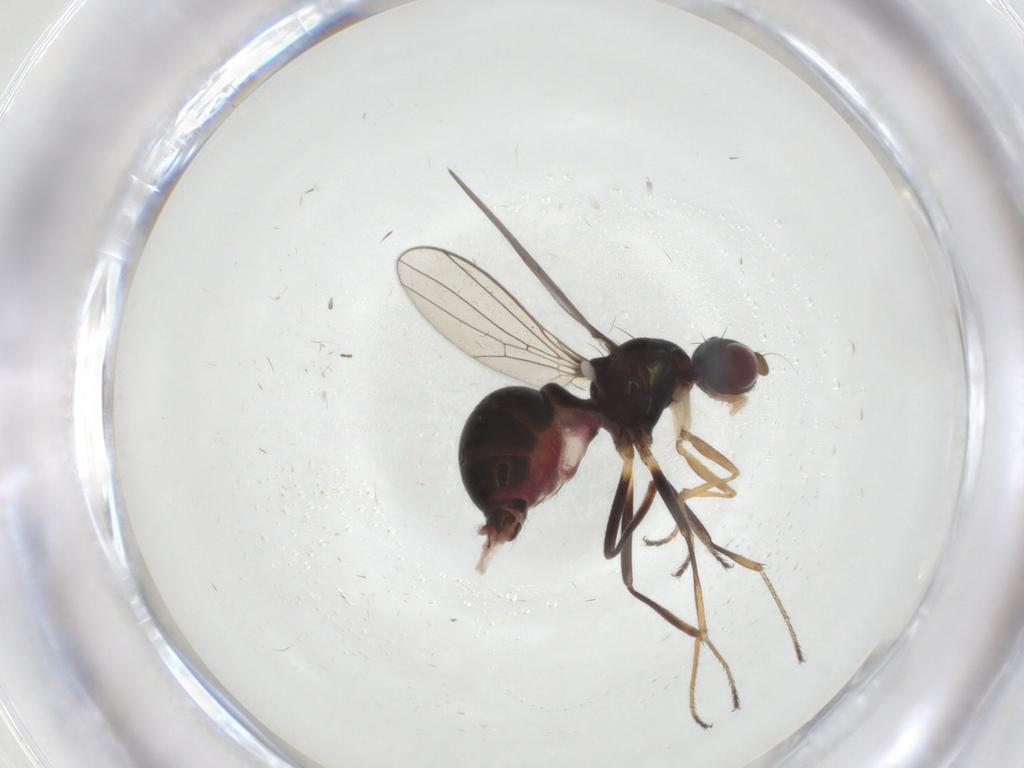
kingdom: Animalia
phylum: Arthropoda
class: Insecta
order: Diptera
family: Sepsidae
